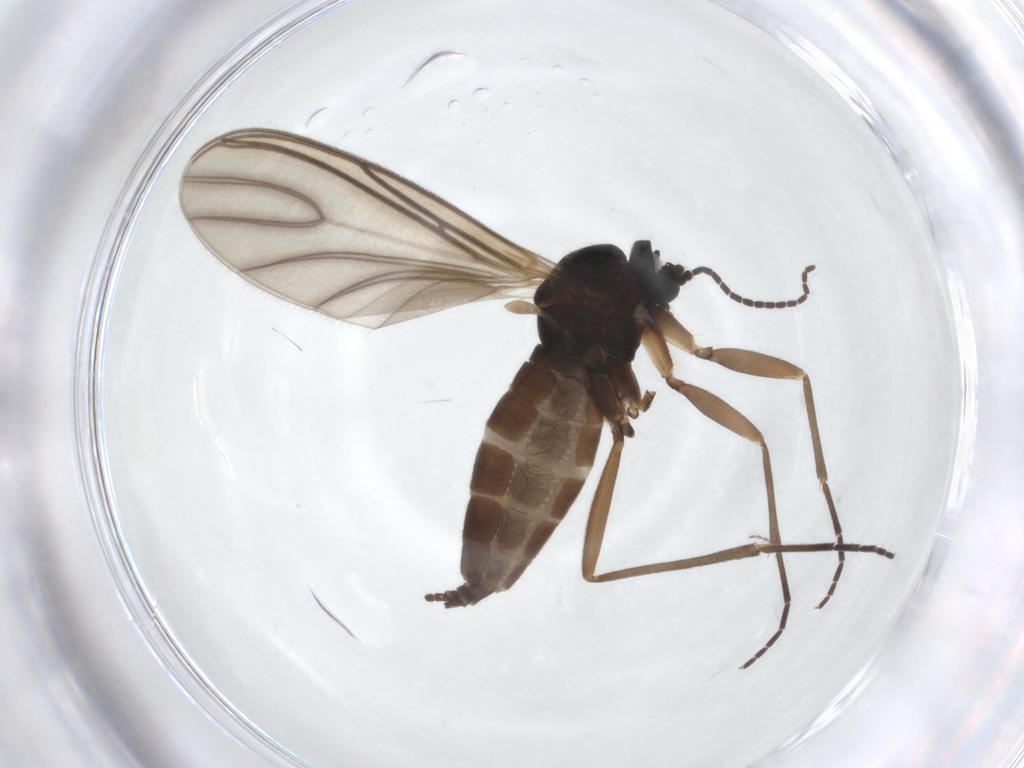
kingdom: Animalia
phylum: Arthropoda
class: Insecta
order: Diptera
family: Sciaridae
